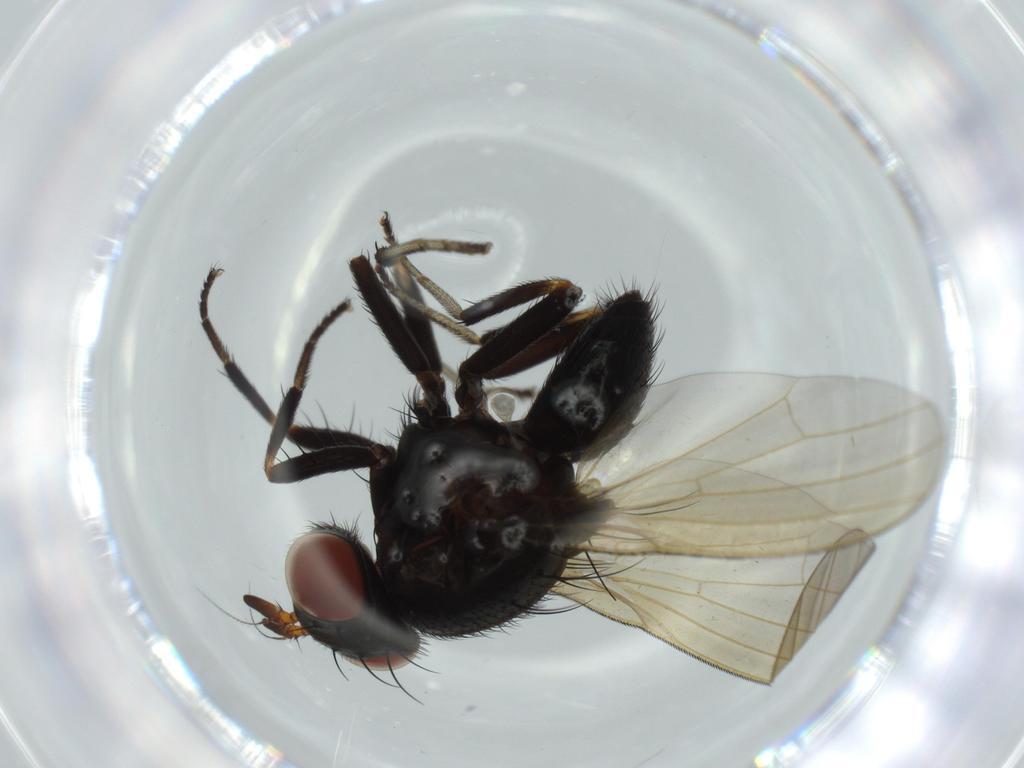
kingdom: Animalia
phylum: Arthropoda
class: Insecta
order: Diptera
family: Lauxaniidae
